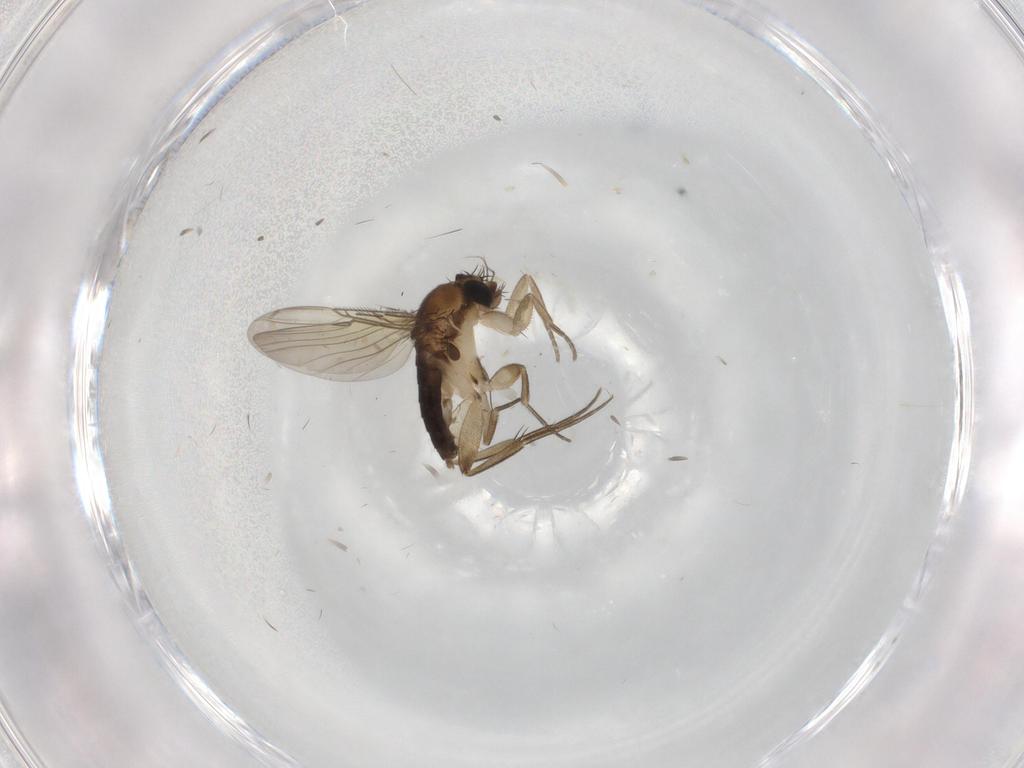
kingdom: Animalia
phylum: Arthropoda
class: Insecta
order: Diptera
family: Phoridae
